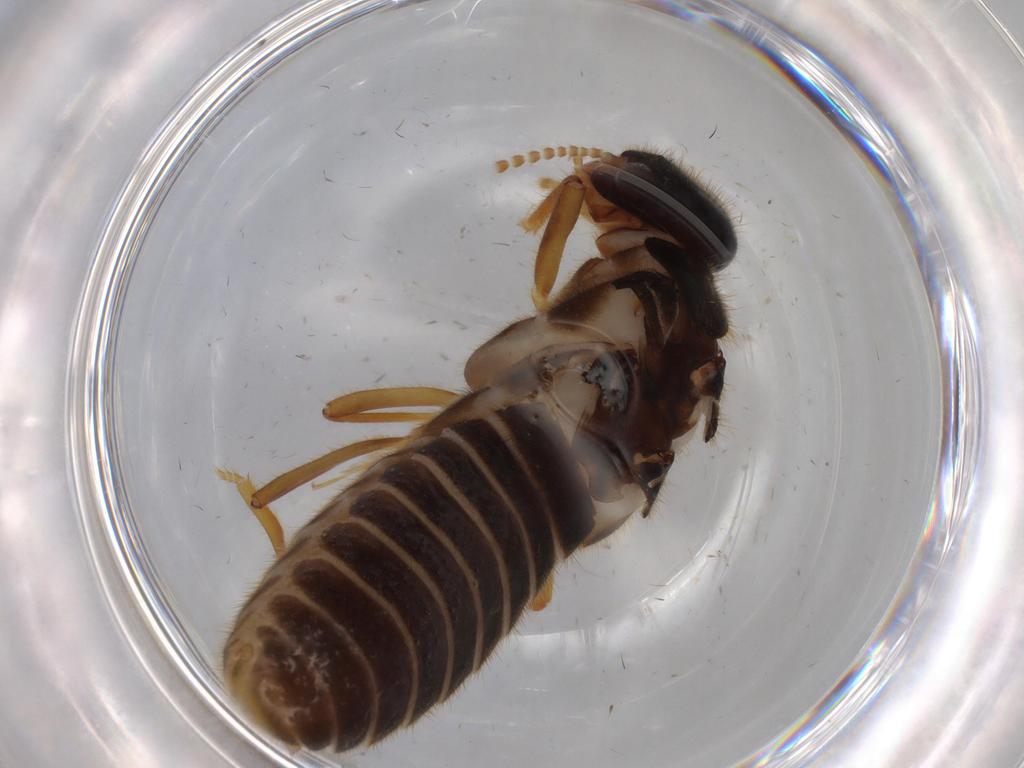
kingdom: Animalia
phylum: Arthropoda
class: Insecta
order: Blattodea
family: Termitidae
